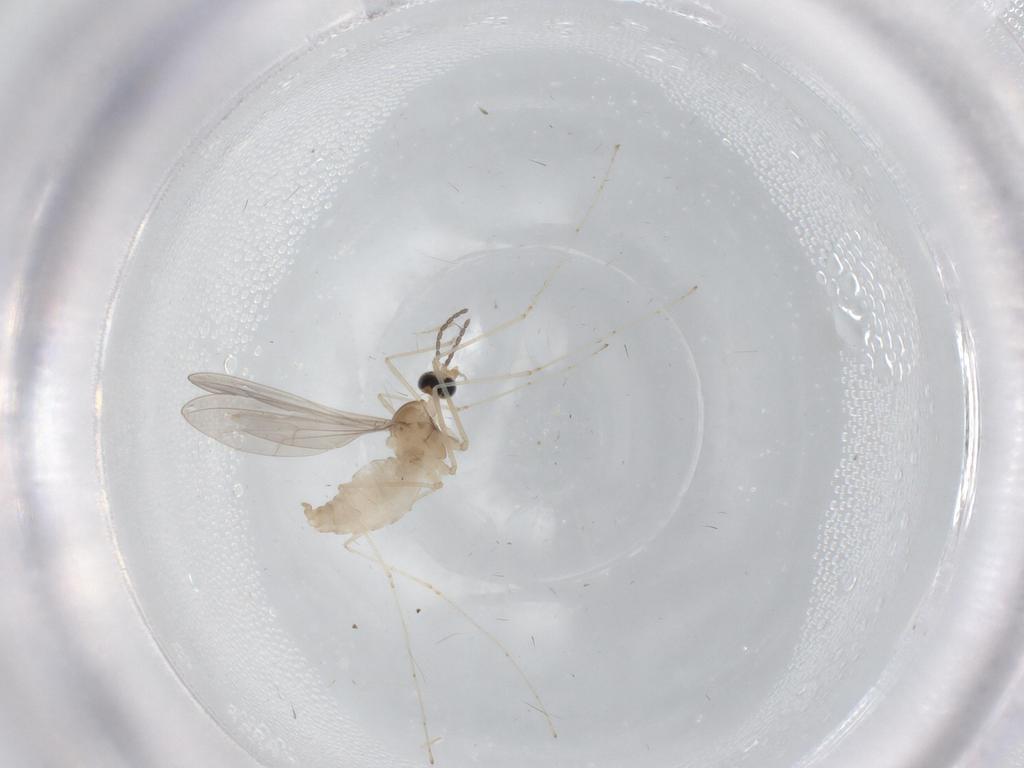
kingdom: Animalia
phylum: Arthropoda
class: Insecta
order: Diptera
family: Cecidomyiidae
